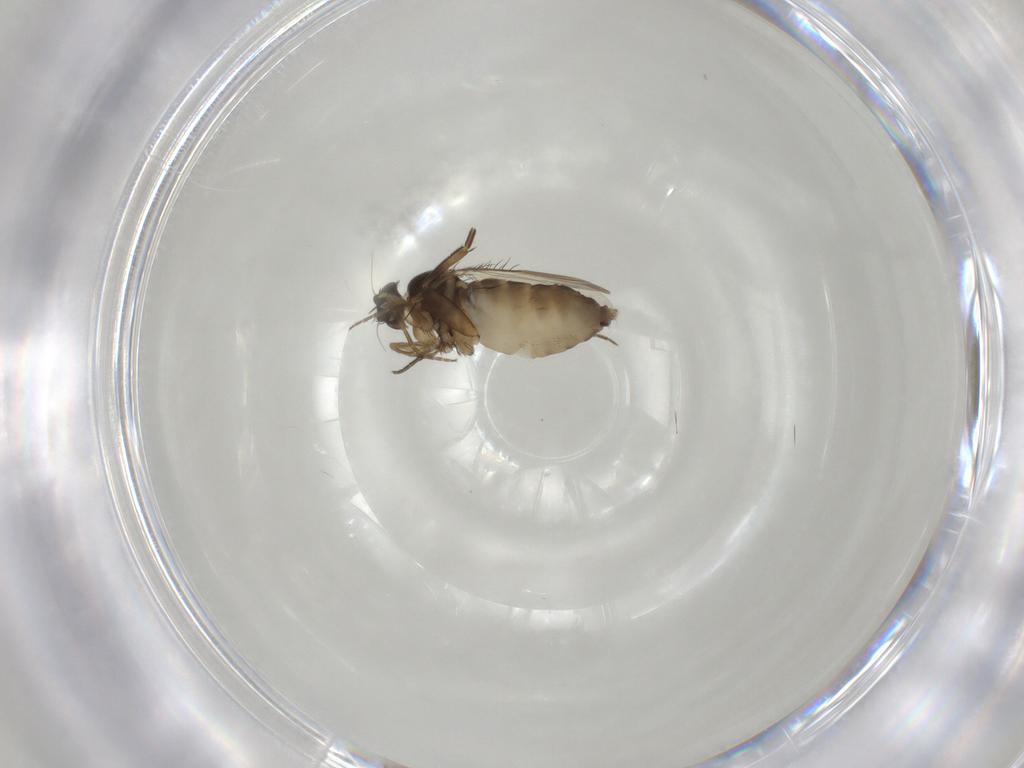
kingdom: Animalia
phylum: Arthropoda
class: Insecta
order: Diptera
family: Phoridae
